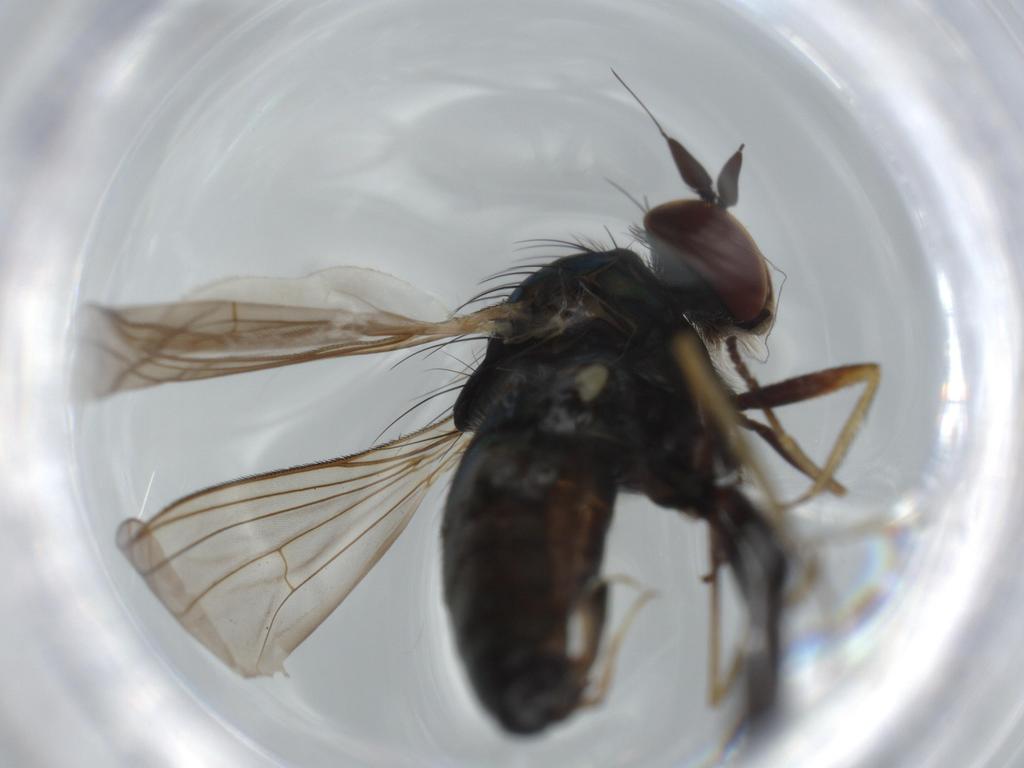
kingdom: Animalia
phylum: Arthropoda
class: Insecta
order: Diptera
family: Dolichopodidae
